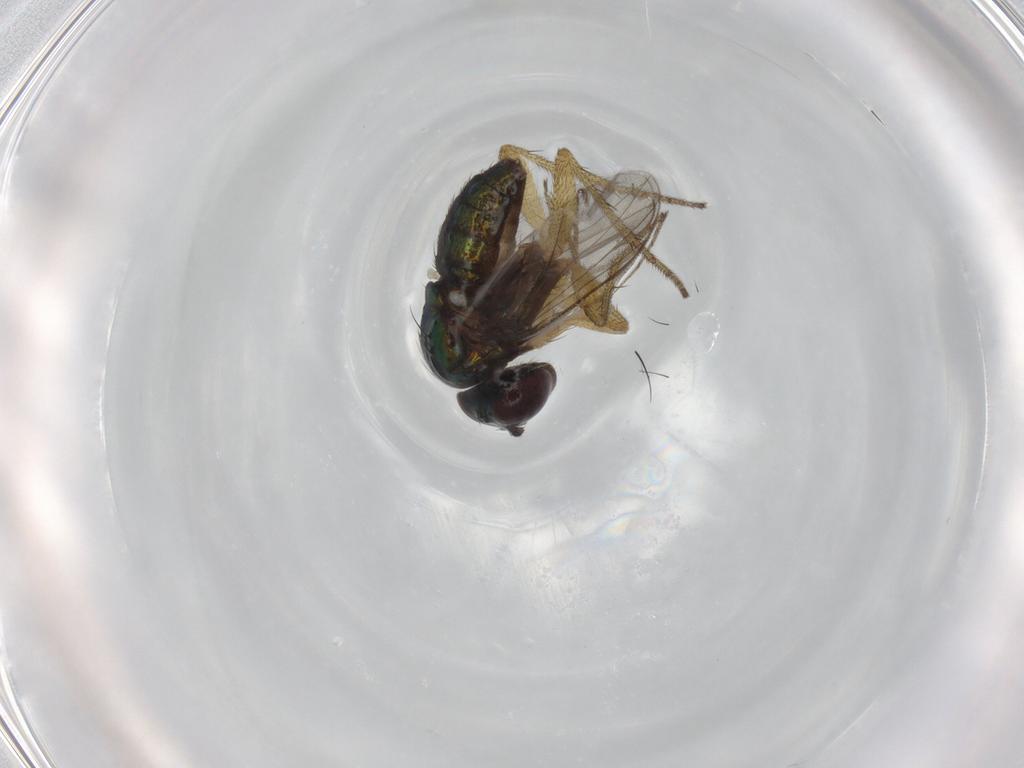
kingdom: Animalia
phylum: Arthropoda
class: Insecta
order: Diptera
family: Dolichopodidae
